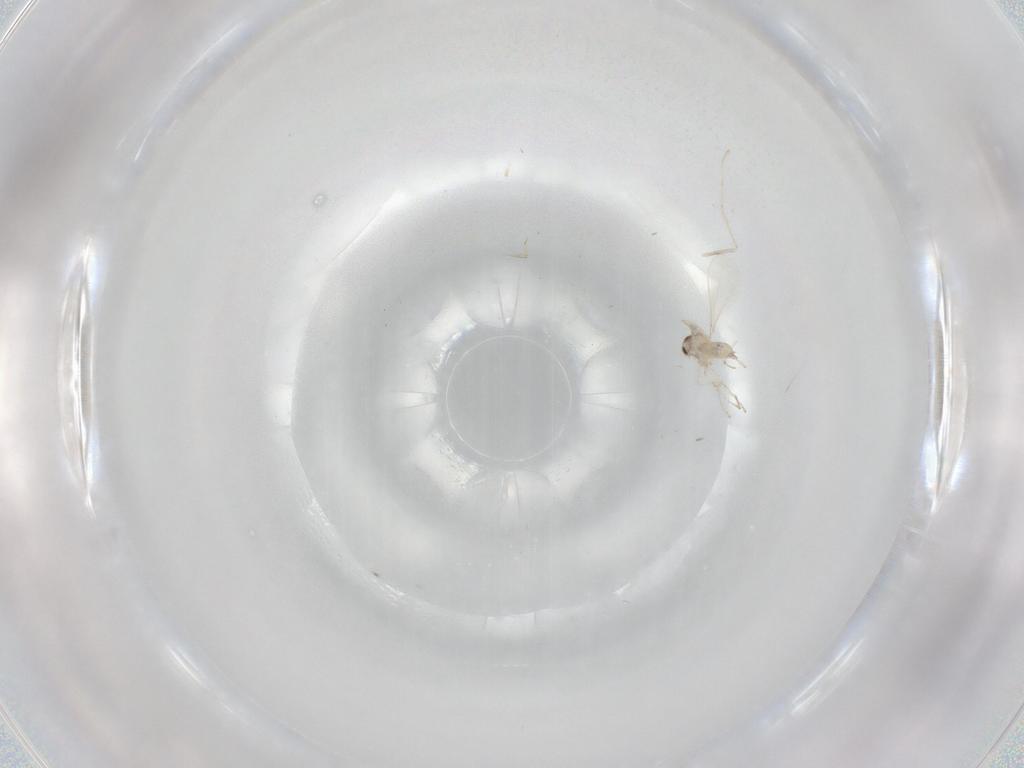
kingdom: Animalia
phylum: Arthropoda
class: Insecta
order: Diptera
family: Cecidomyiidae
